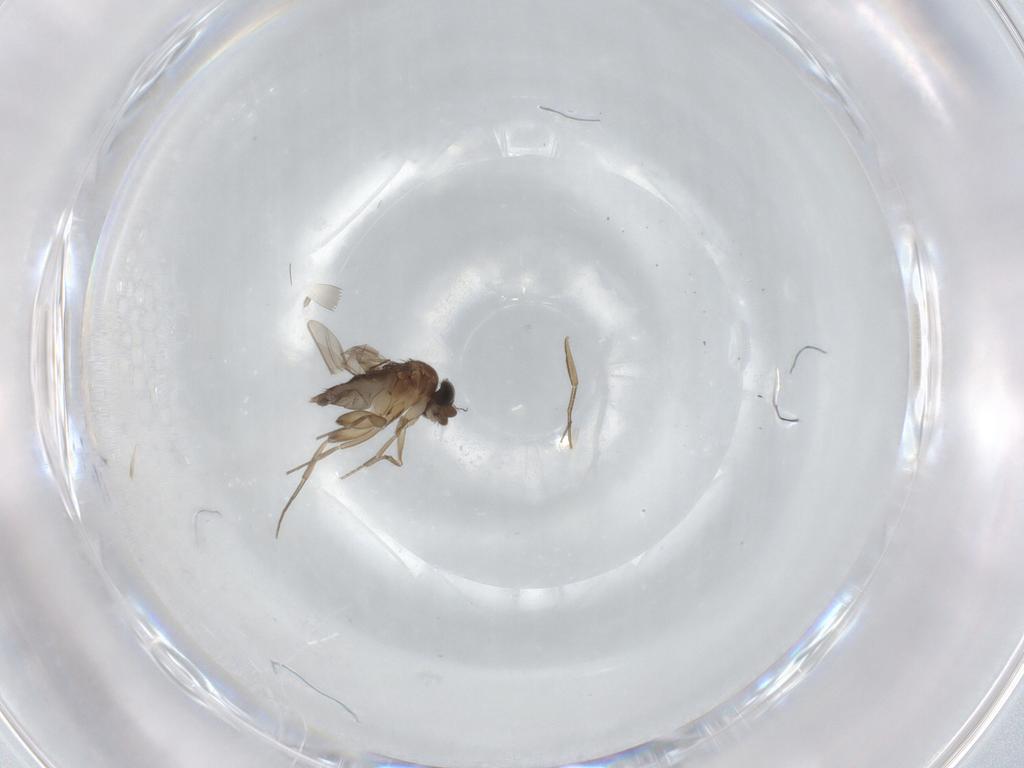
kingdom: Animalia
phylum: Arthropoda
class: Insecta
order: Diptera
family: Phoridae
